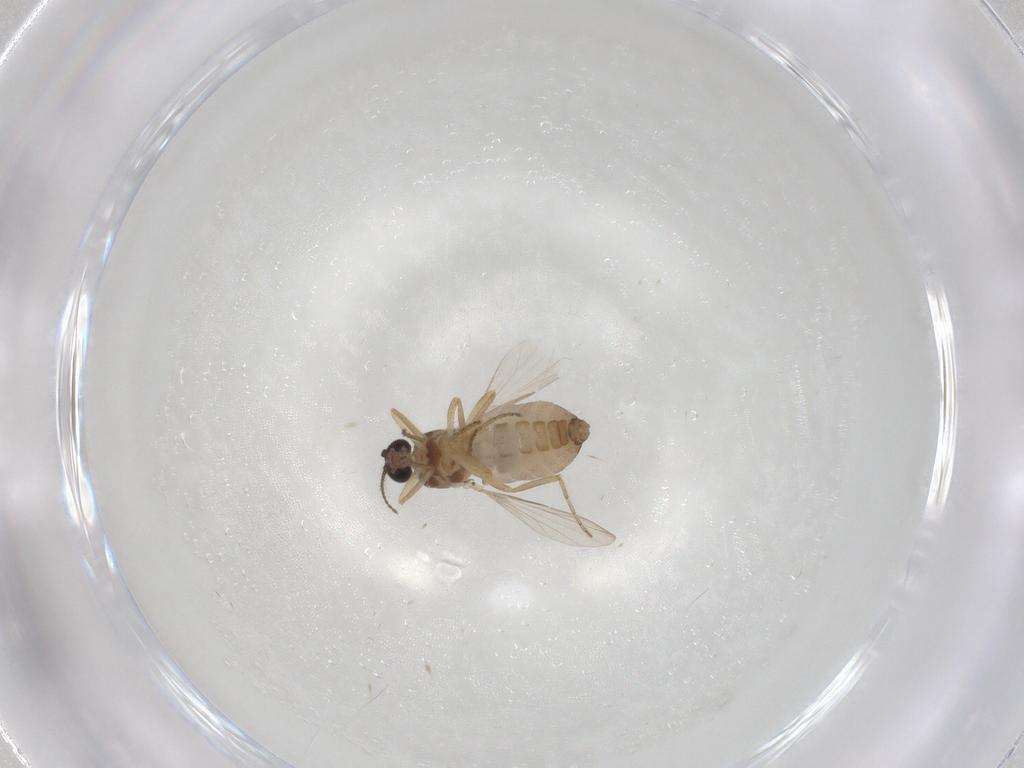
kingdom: Animalia
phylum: Arthropoda
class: Insecta
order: Diptera
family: Ceratopogonidae
